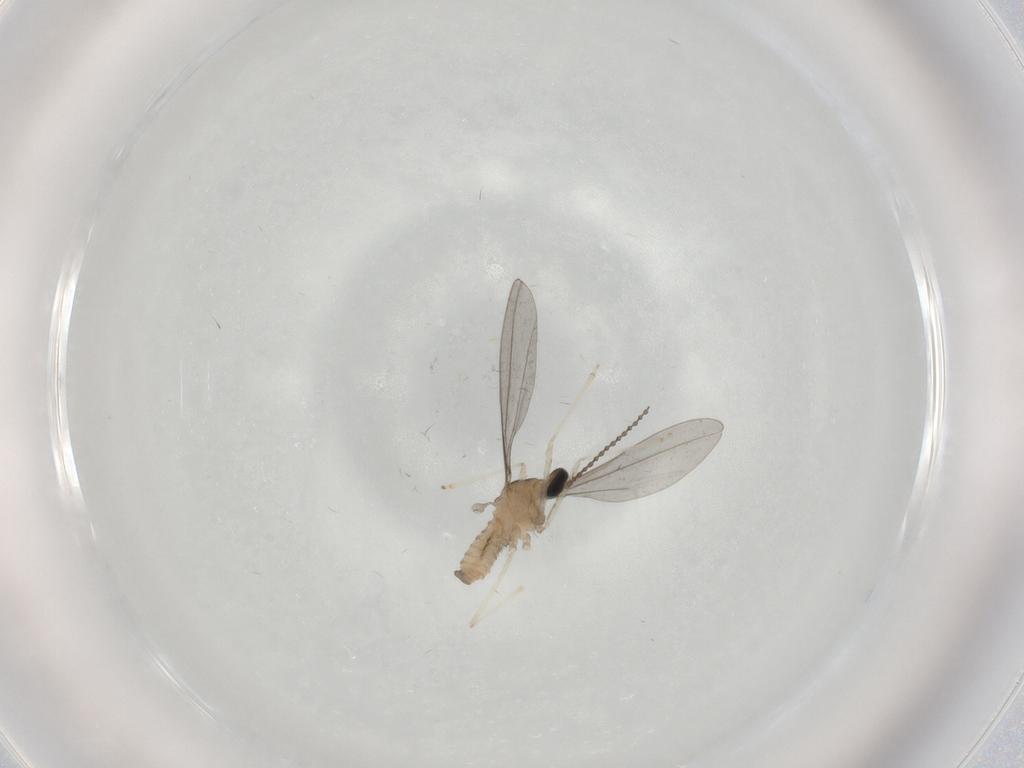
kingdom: Animalia
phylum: Arthropoda
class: Insecta
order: Diptera
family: Cecidomyiidae
